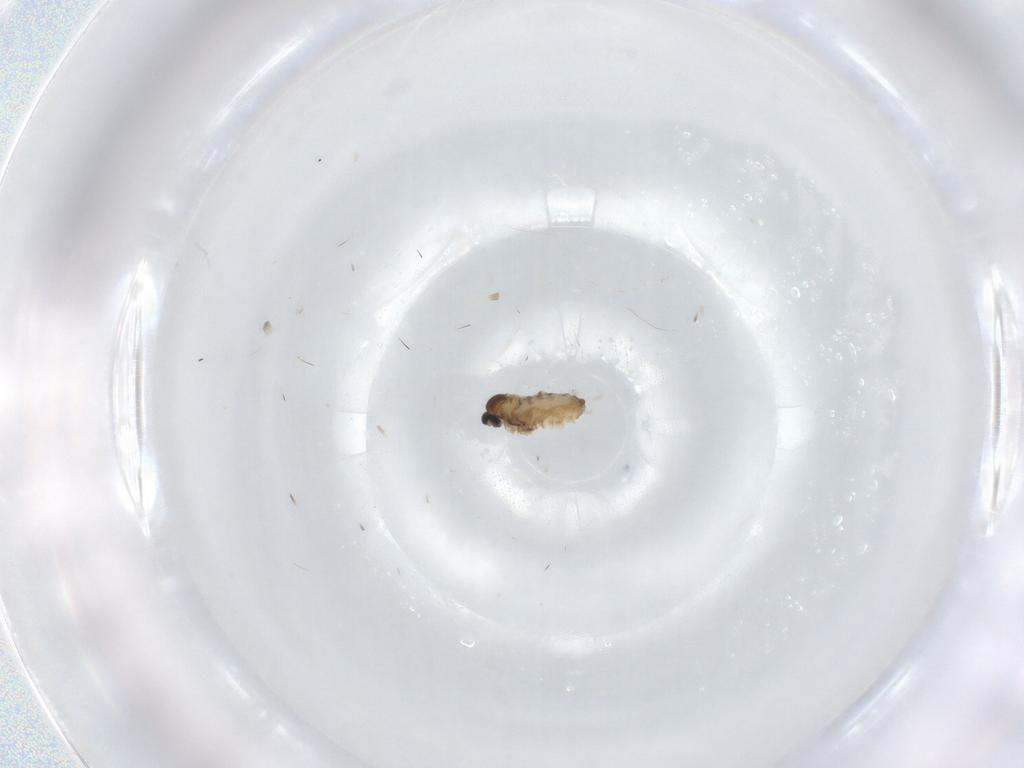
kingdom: Animalia
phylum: Arthropoda
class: Insecta
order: Diptera
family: Cecidomyiidae
